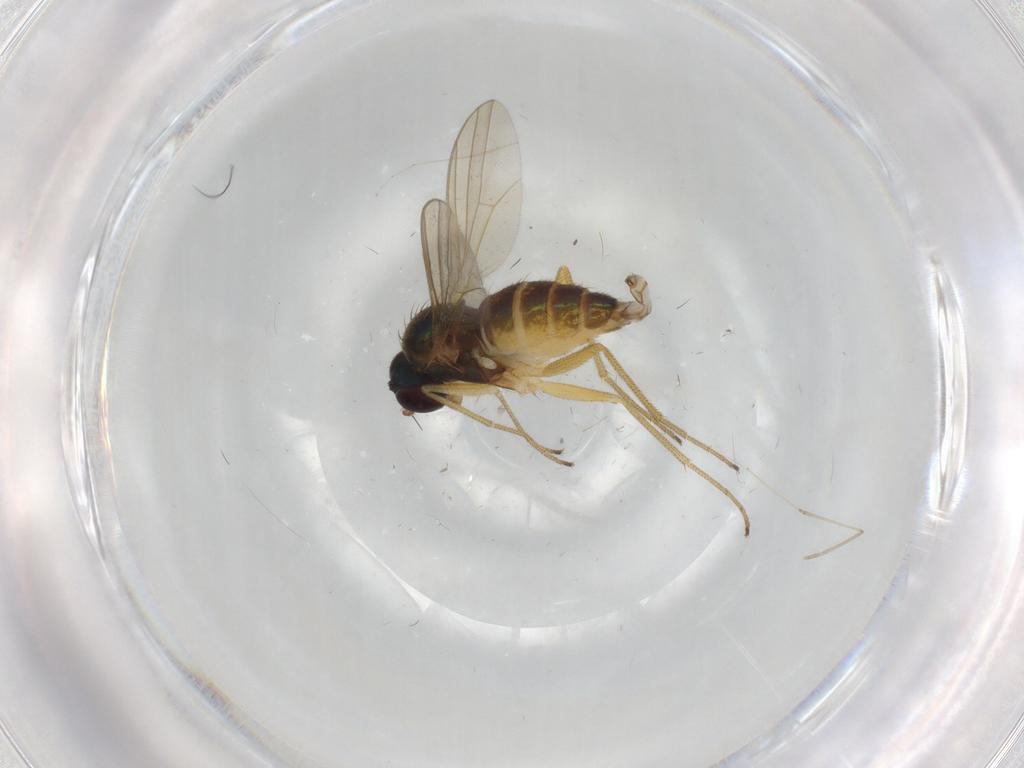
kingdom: Animalia
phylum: Arthropoda
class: Insecta
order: Diptera
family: Dolichopodidae
